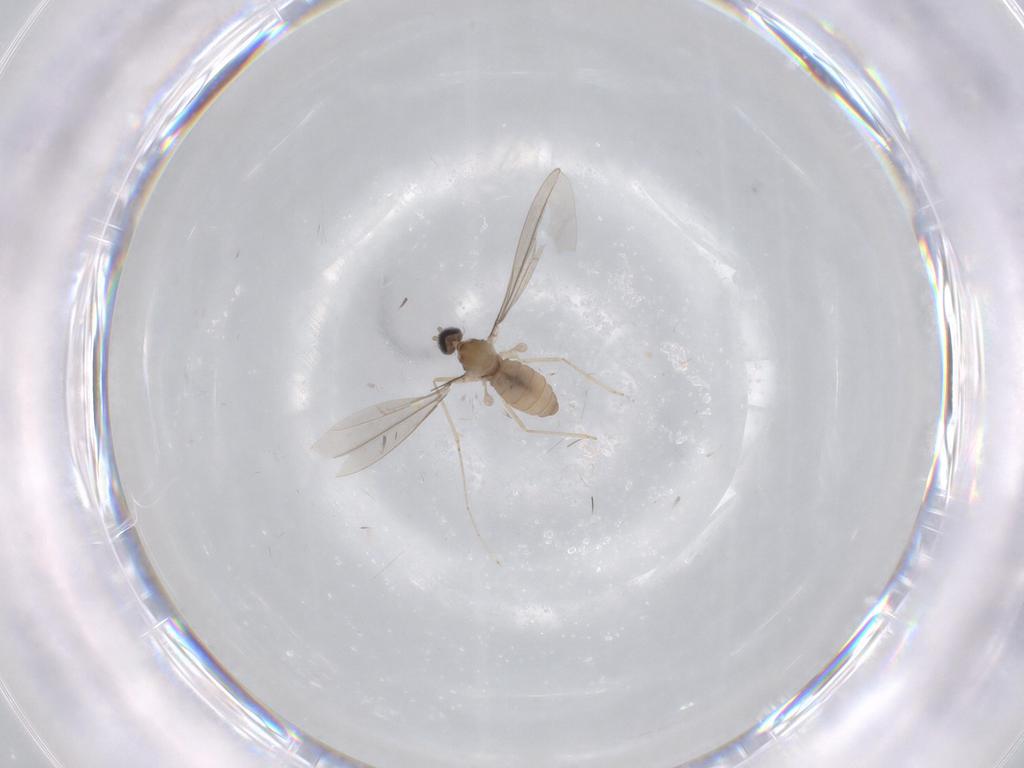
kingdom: Animalia
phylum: Arthropoda
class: Insecta
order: Diptera
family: Cecidomyiidae
